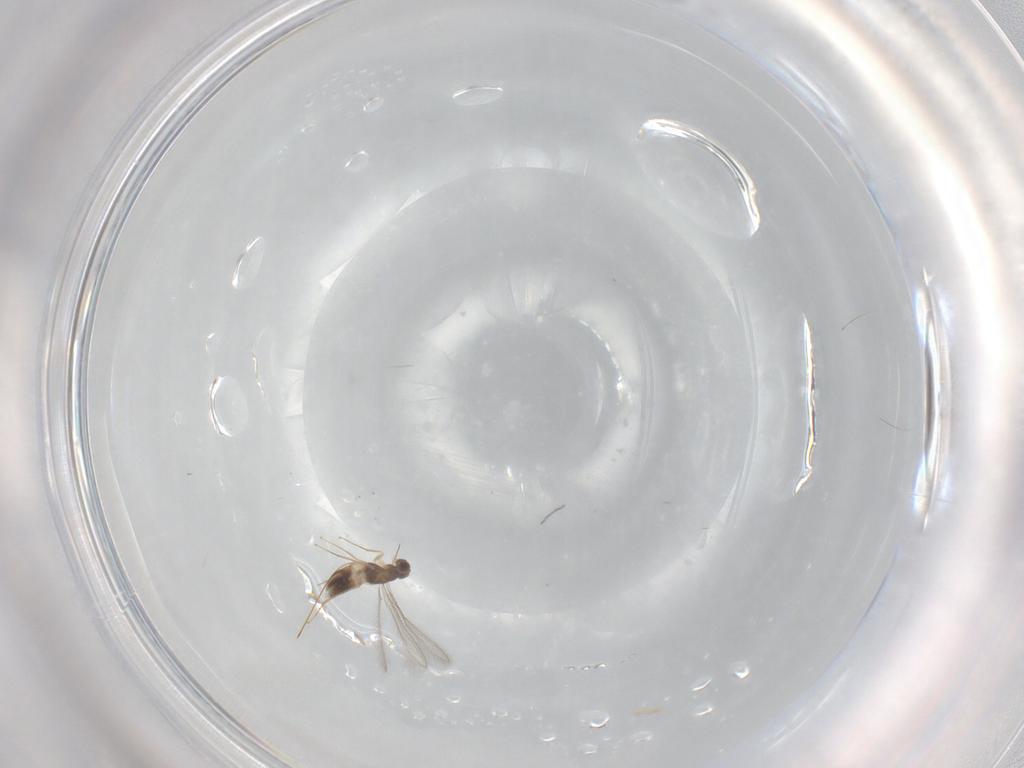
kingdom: Animalia
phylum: Arthropoda
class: Insecta
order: Hymenoptera
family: Mymaridae
